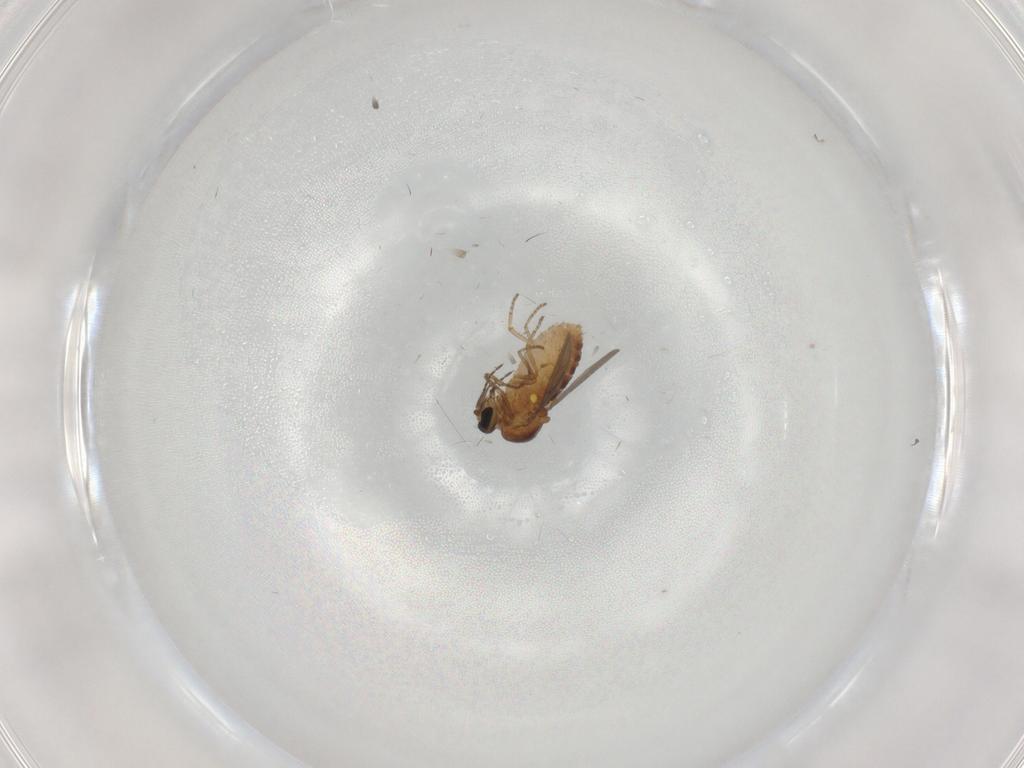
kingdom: Animalia
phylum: Arthropoda
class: Insecta
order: Diptera
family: Ceratopogonidae
